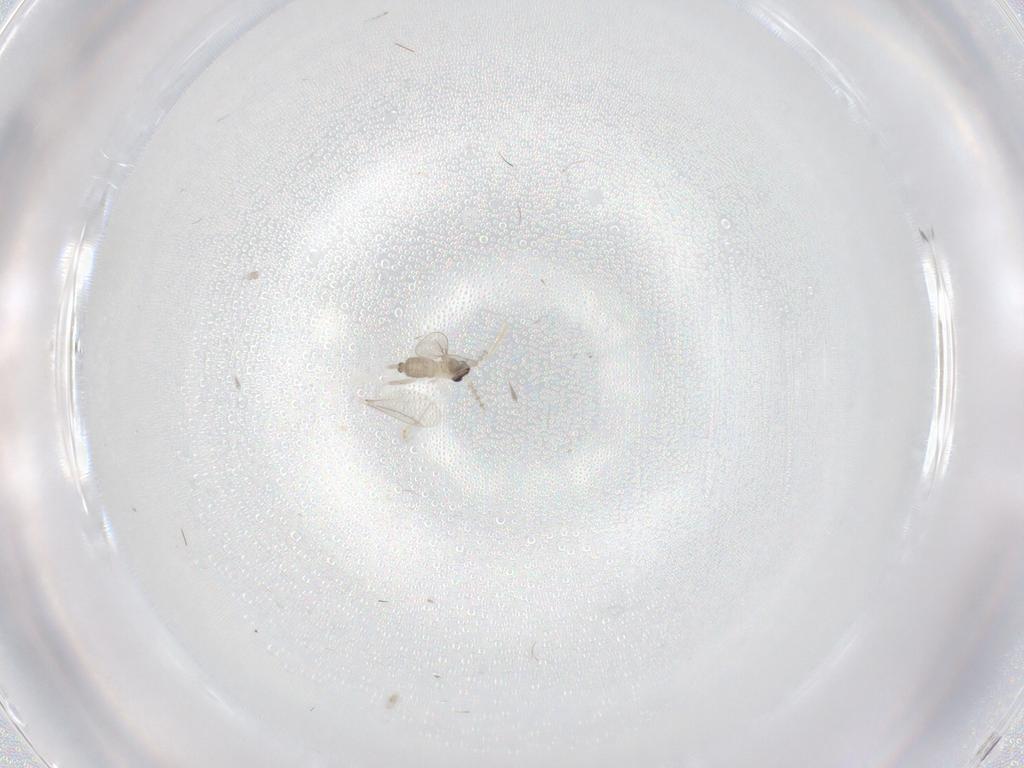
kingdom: Animalia
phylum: Arthropoda
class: Insecta
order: Diptera
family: Cecidomyiidae
